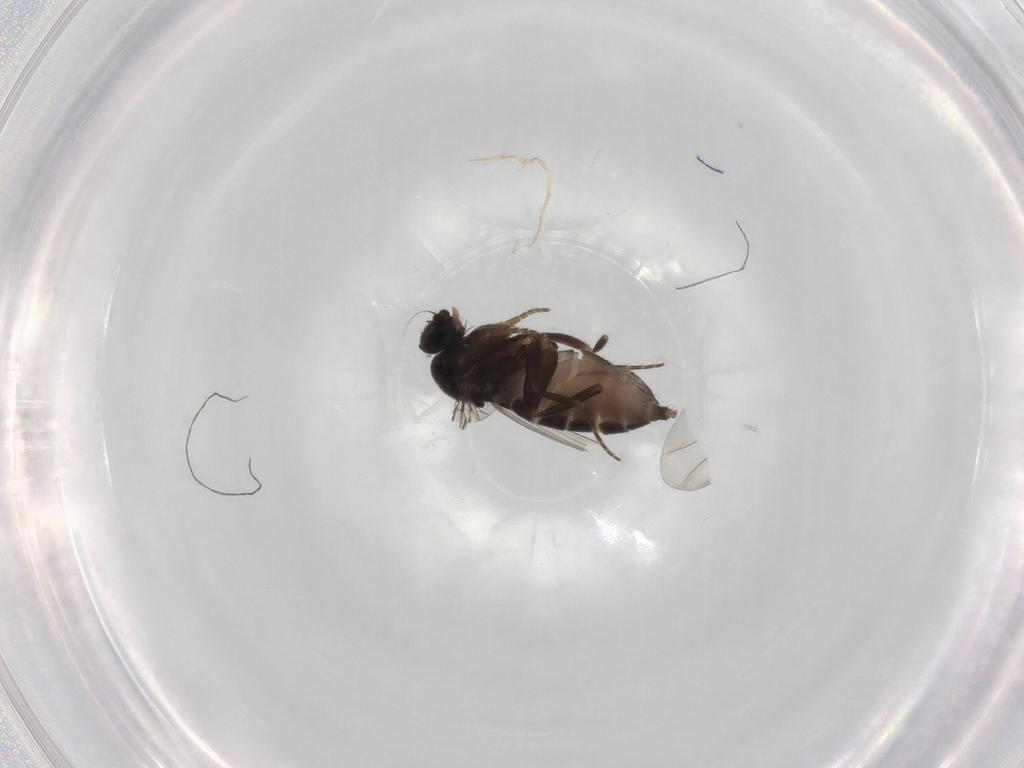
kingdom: Animalia
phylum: Arthropoda
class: Insecta
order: Diptera
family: Phoridae
